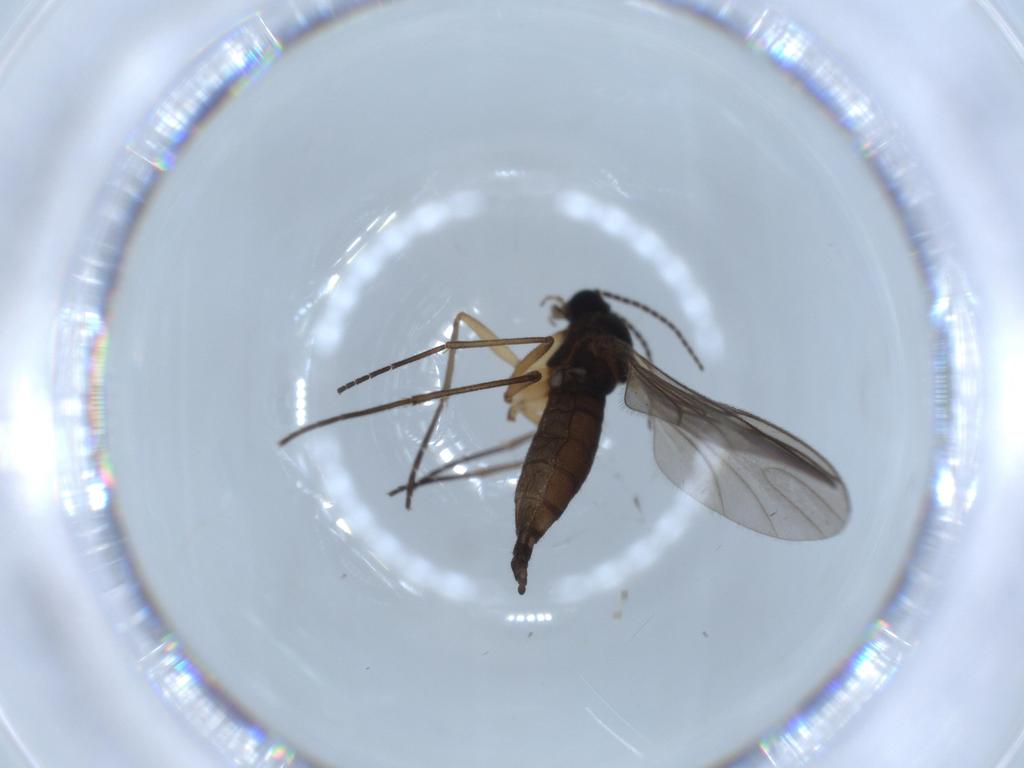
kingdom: Animalia
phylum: Arthropoda
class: Insecta
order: Diptera
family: Sciaridae
